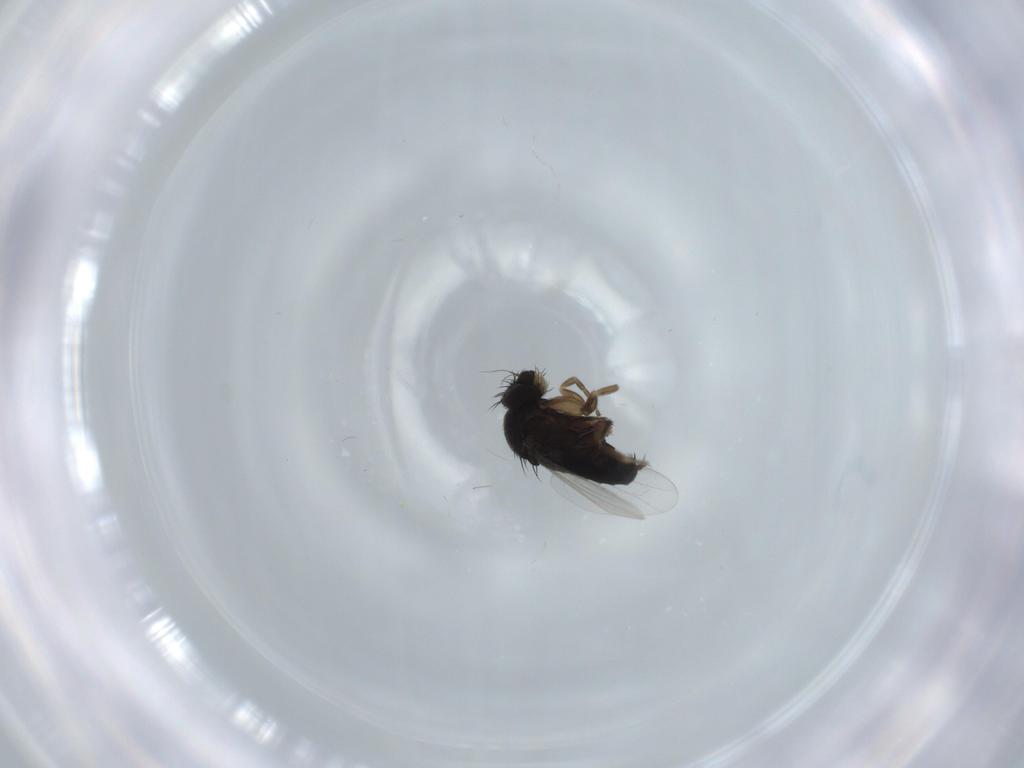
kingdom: Animalia
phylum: Arthropoda
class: Insecta
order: Diptera
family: Phoridae
